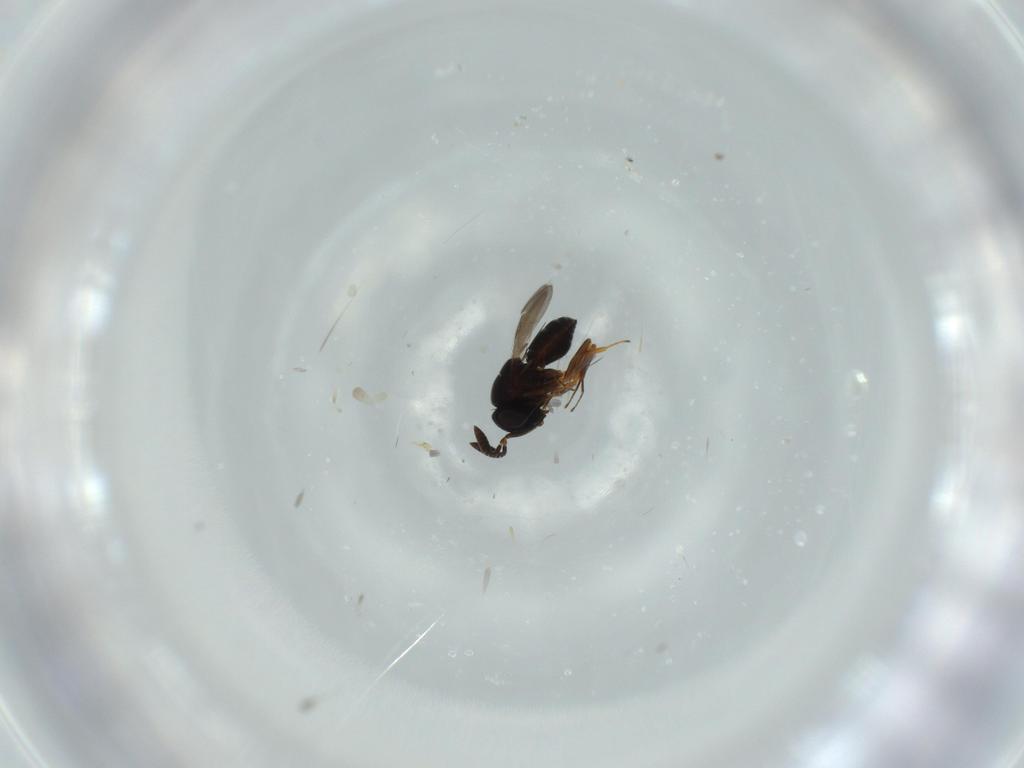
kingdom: Animalia
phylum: Arthropoda
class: Insecta
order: Hymenoptera
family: Scelionidae
